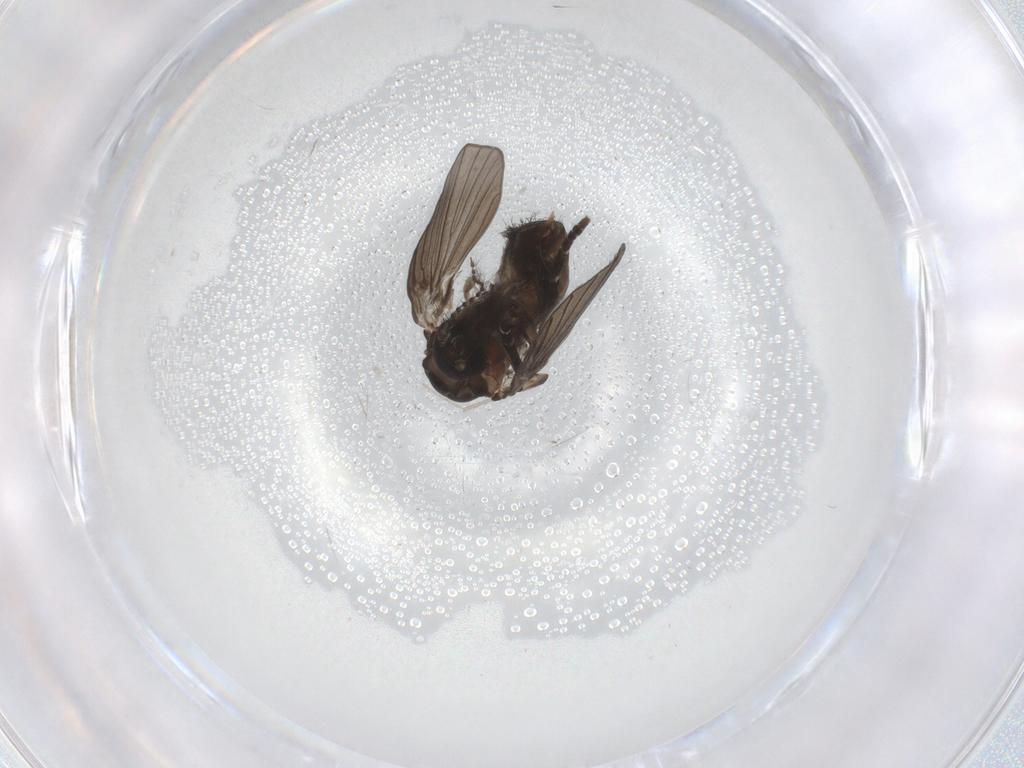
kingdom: Animalia
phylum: Arthropoda
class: Insecta
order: Diptera
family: Psychodidae
